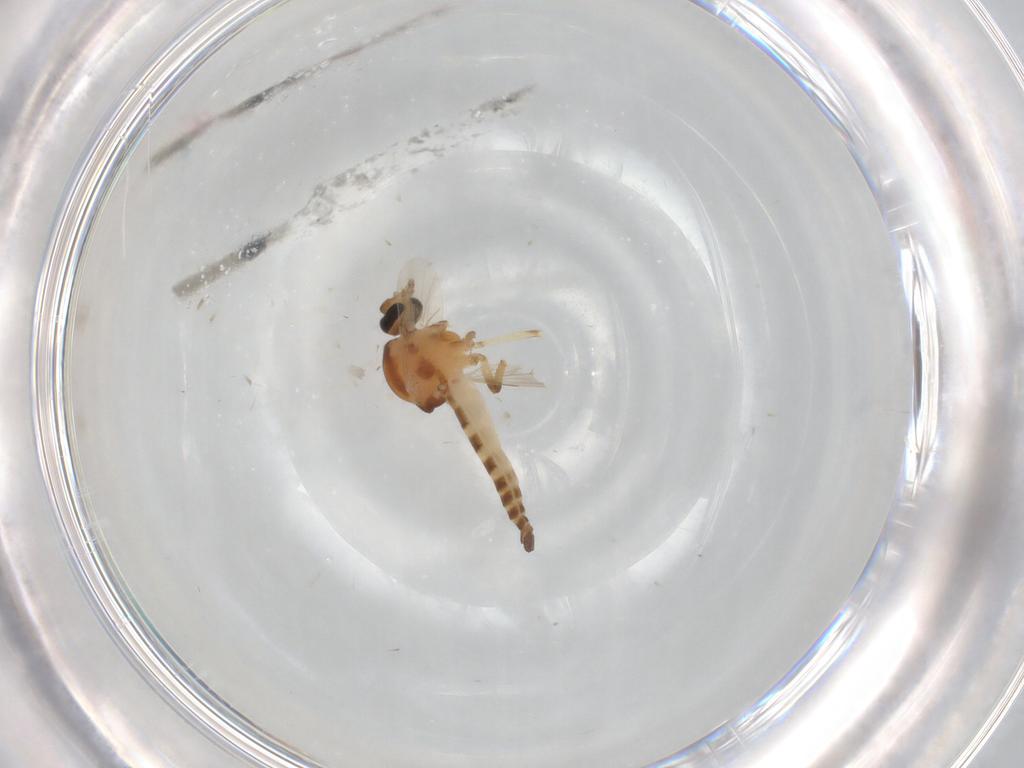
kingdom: Animalia
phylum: Arthropoda
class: Insecta
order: Diptera
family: Ceratopogonidae
